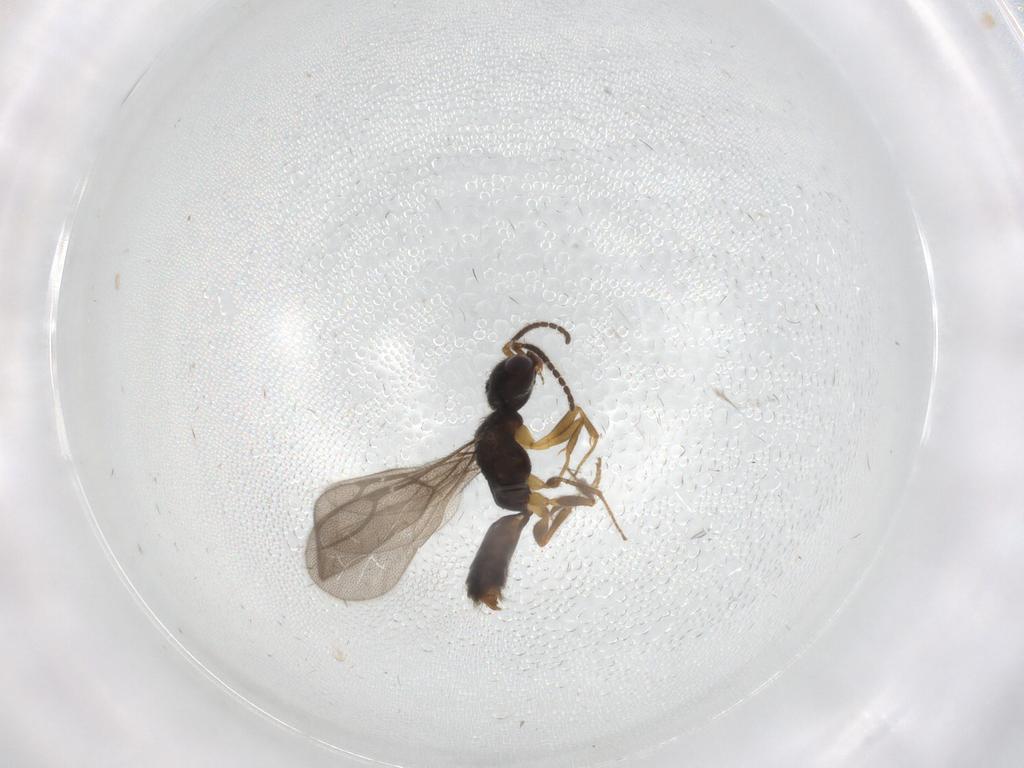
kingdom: Animalia
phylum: Arthropoda
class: Insecta
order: Hymenoptera
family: Bethylidae
